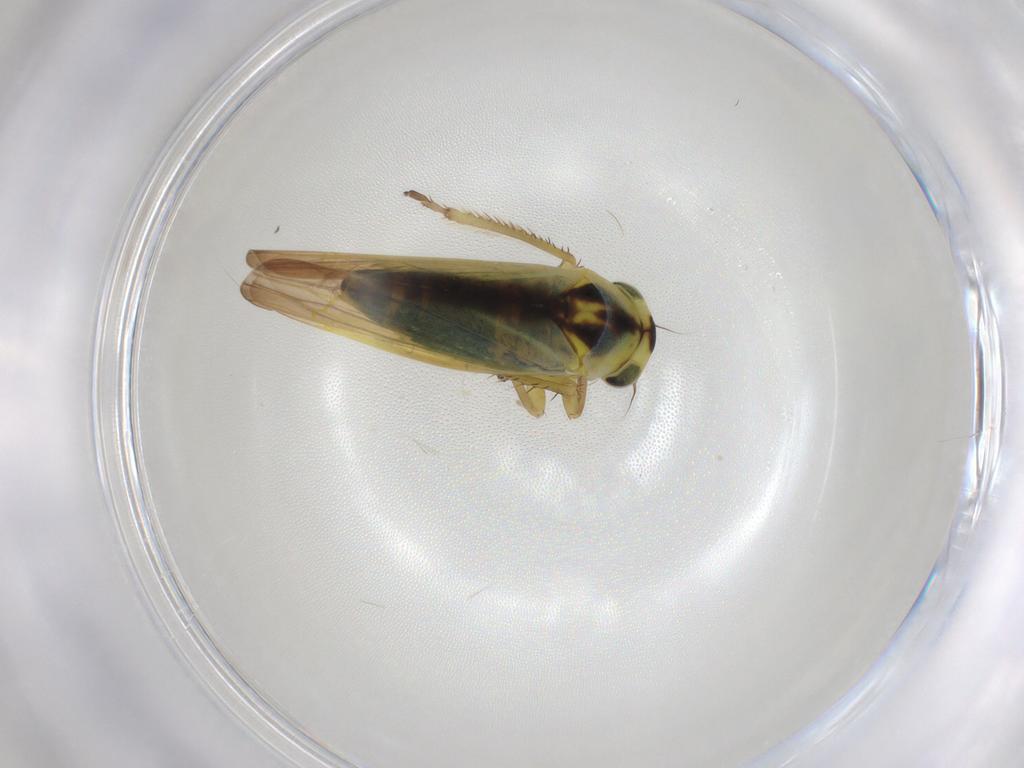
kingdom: Animalia
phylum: Arthropoda
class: Insecta
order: Hemiptera
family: Cicadellidae
